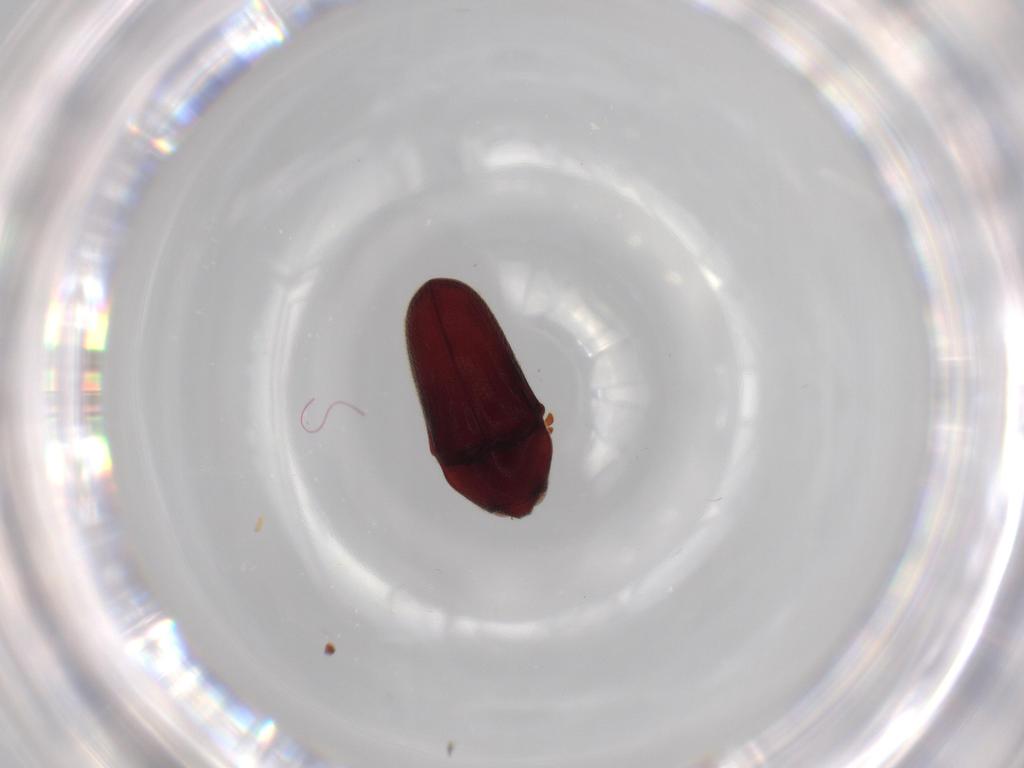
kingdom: Animalia
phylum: Arthropoda
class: Insecta
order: Coleoptera
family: Throscidae
